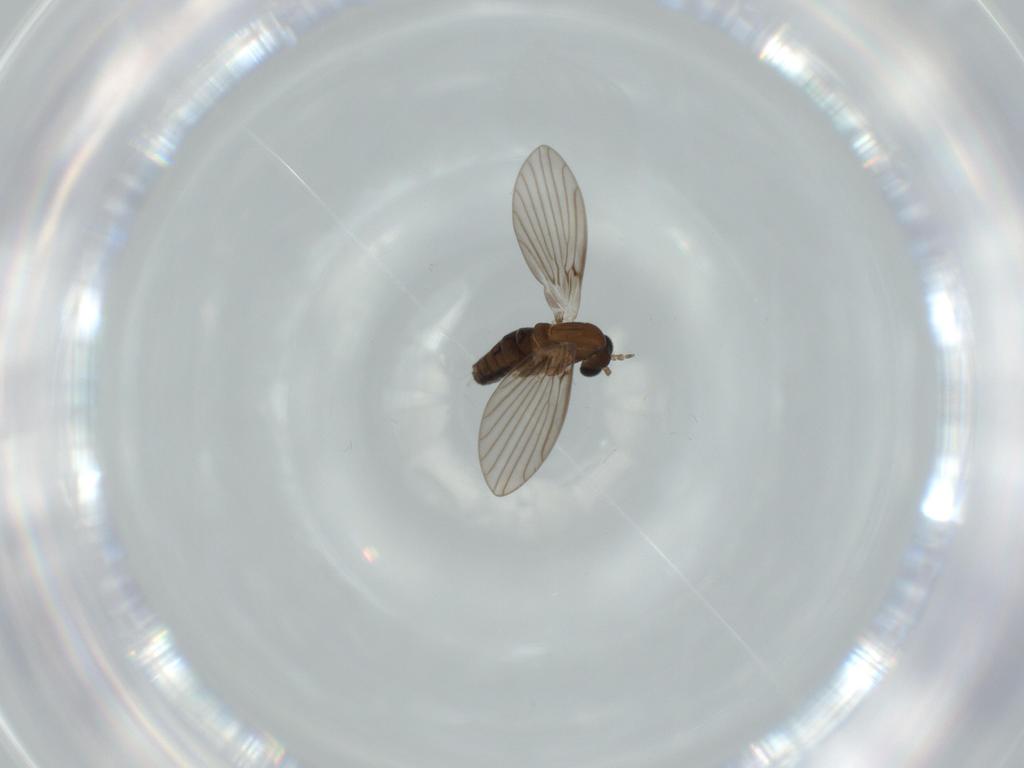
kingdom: Animalia
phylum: Arthropoda
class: Insecta
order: Diptera
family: Psychodidae
